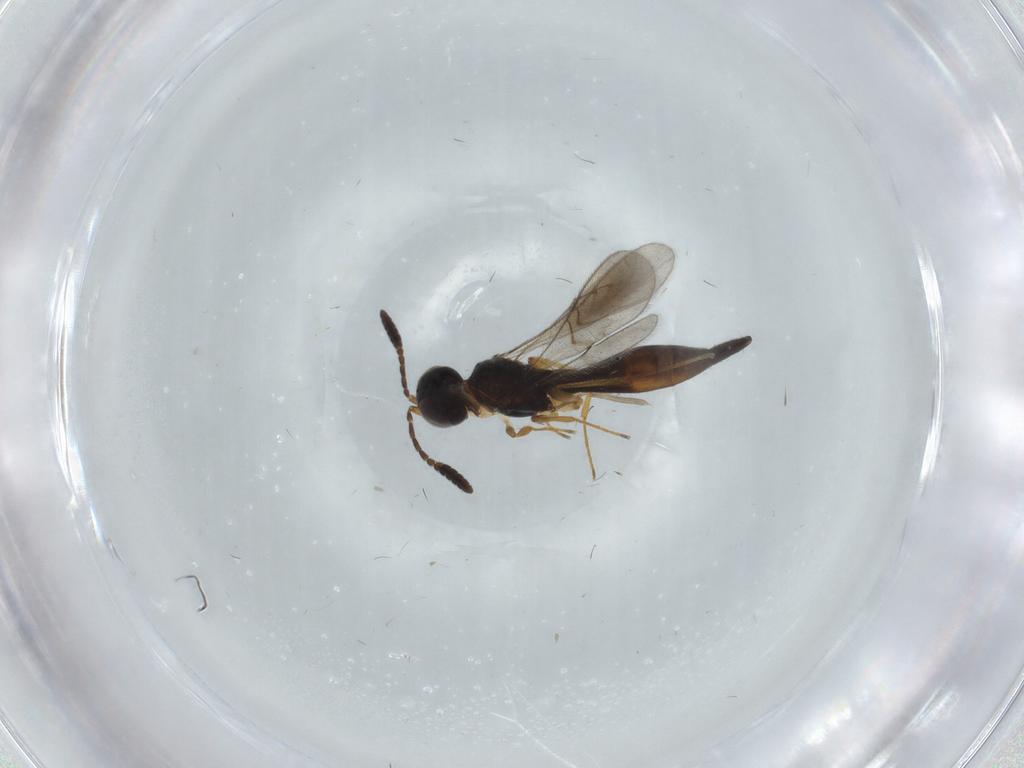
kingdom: Animalia
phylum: Arthropoda
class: Insecta
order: Hymenoptera
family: Scelionidae
